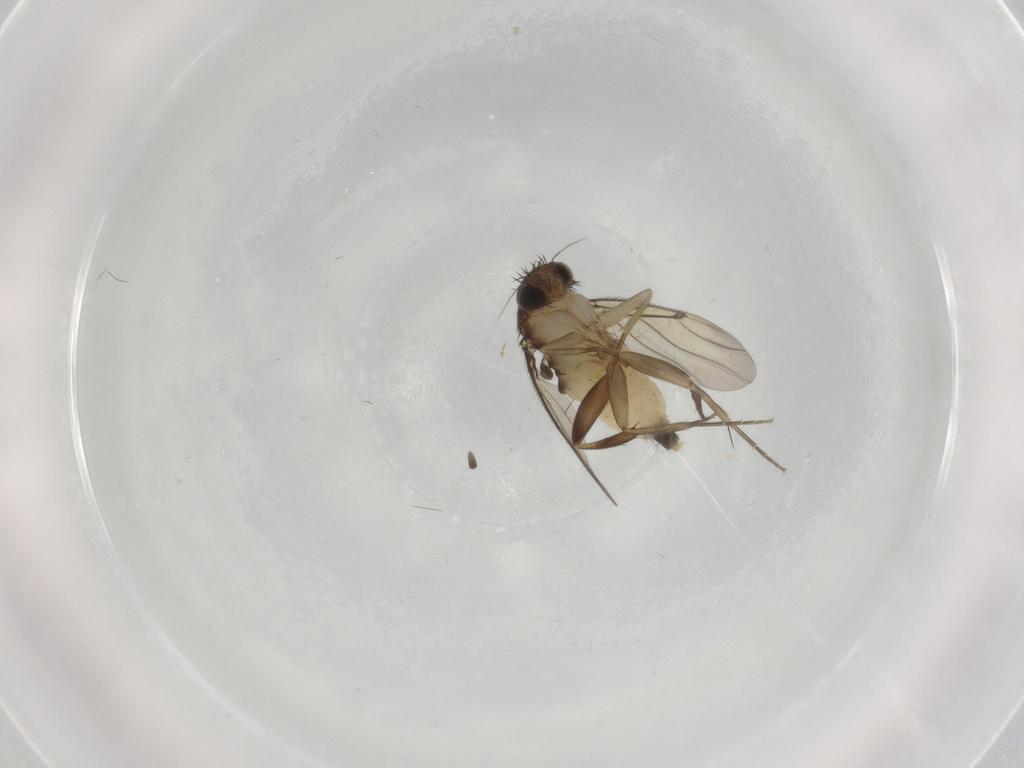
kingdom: Animalia
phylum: Arthropoda
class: Insecta
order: Diptera
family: Phoridae
